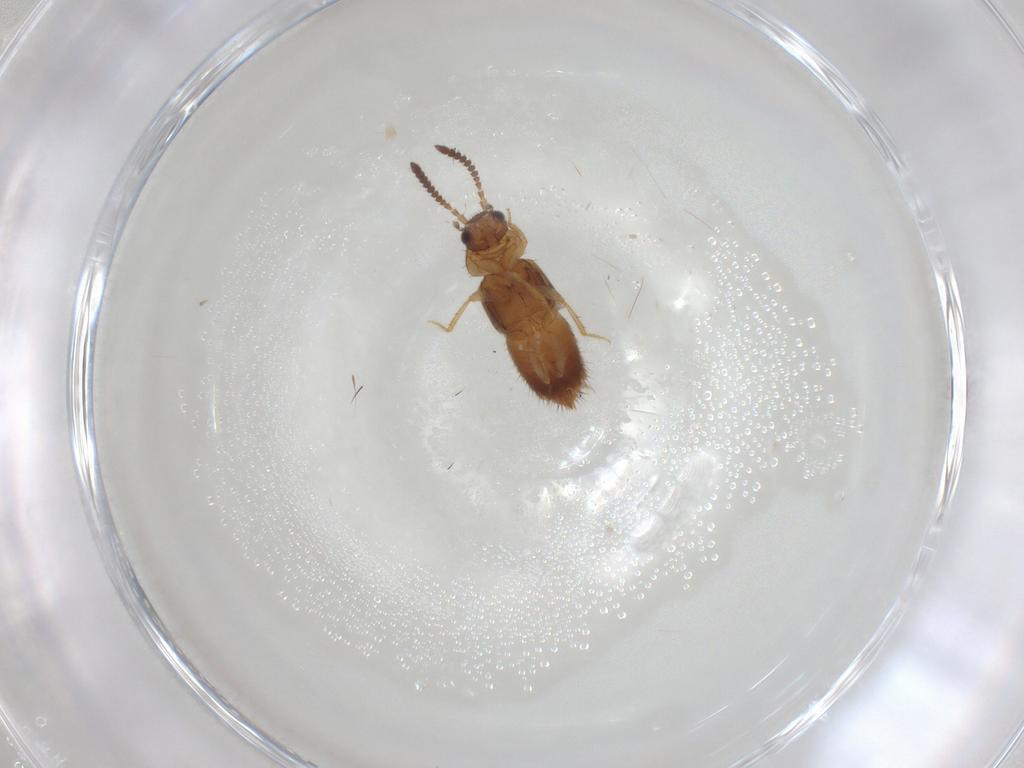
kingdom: Animalia
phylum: Arthropoda
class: Insecta
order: Coleoptera
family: Staphylinidae
